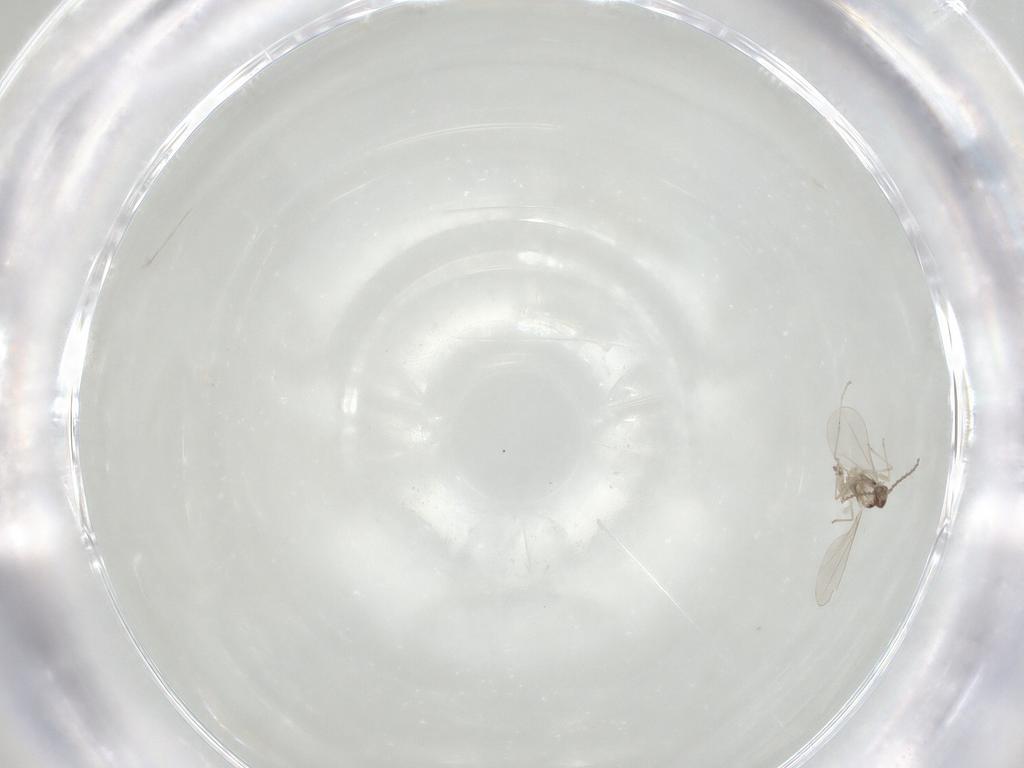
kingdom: Animalia
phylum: Arthropoda
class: Insecta
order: Diptera
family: Cecidomyiidae
